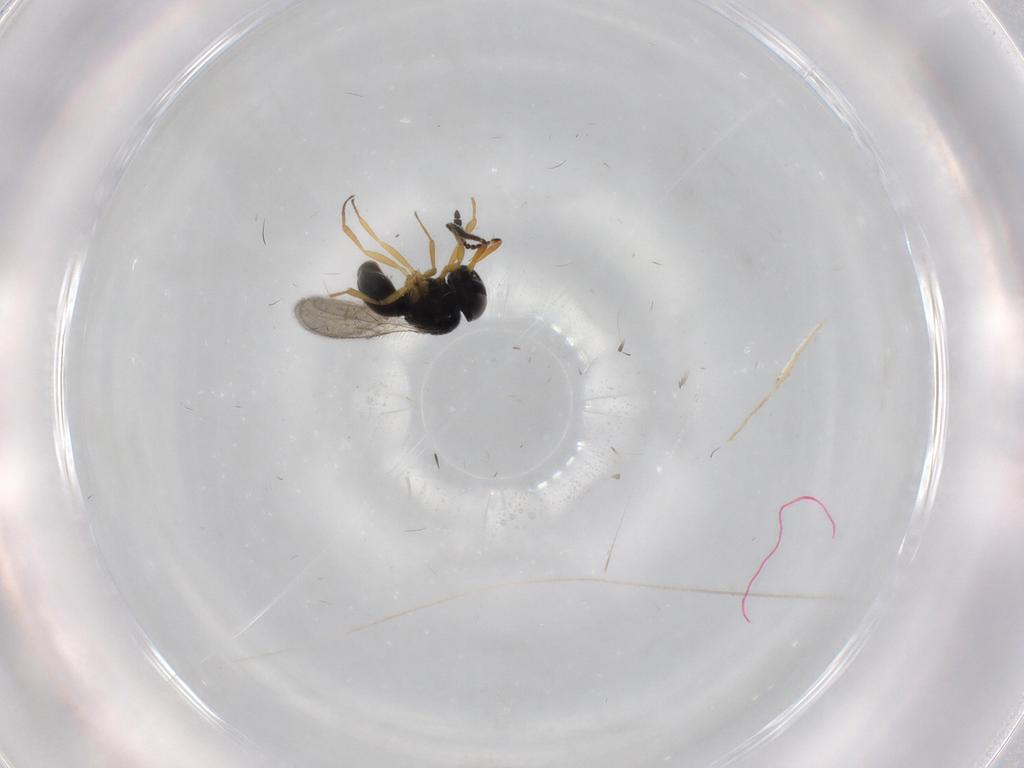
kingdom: Animalia
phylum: Arthropoda
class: Insecta
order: Hymenoptera
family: Scelionidae
